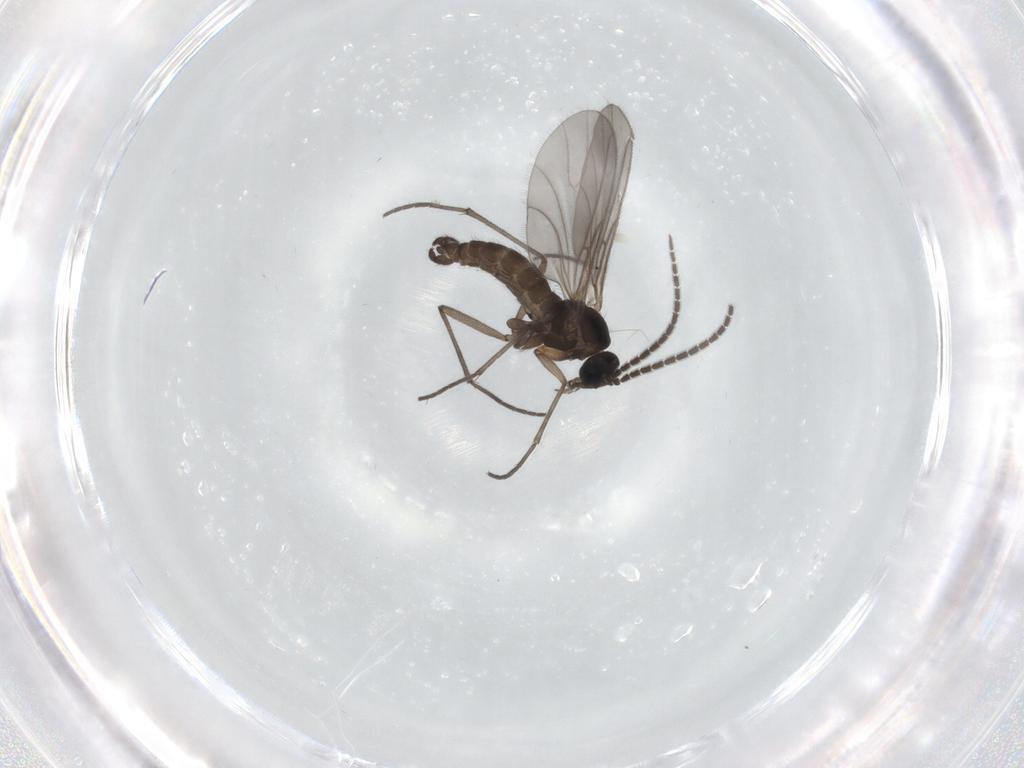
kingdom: Animalia
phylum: Arthropoda
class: Insecta
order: Diptera
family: Sciaridae
